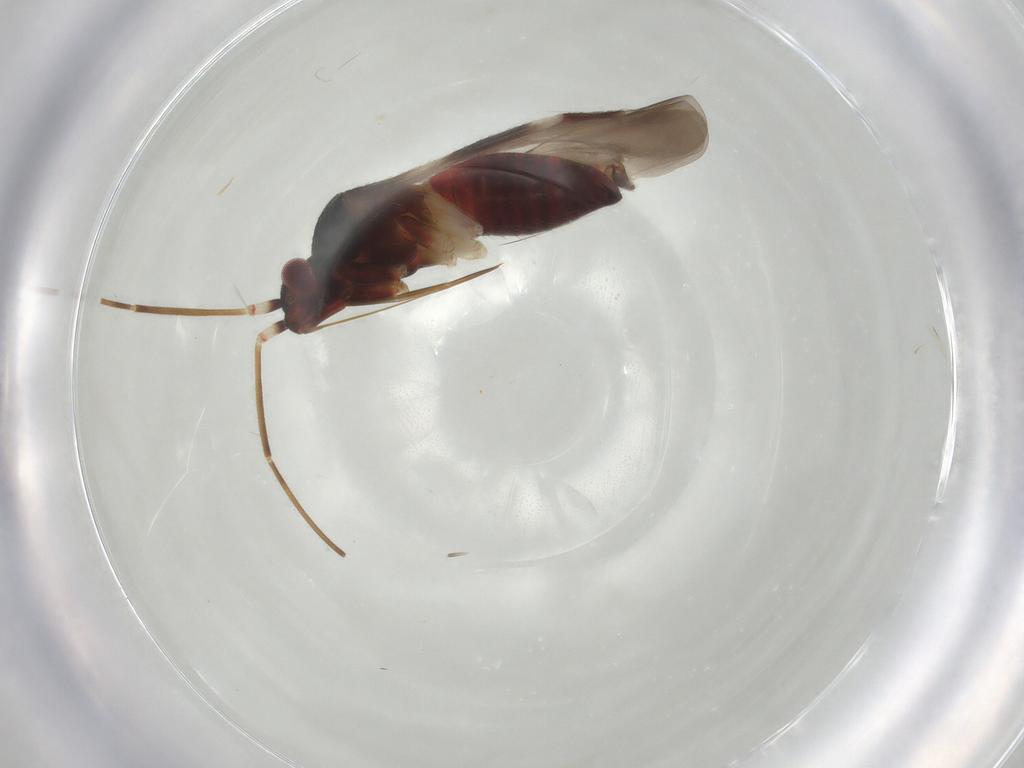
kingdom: Animalia
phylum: Arthropoda
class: Insecta
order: Hemiptera
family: Miridae
